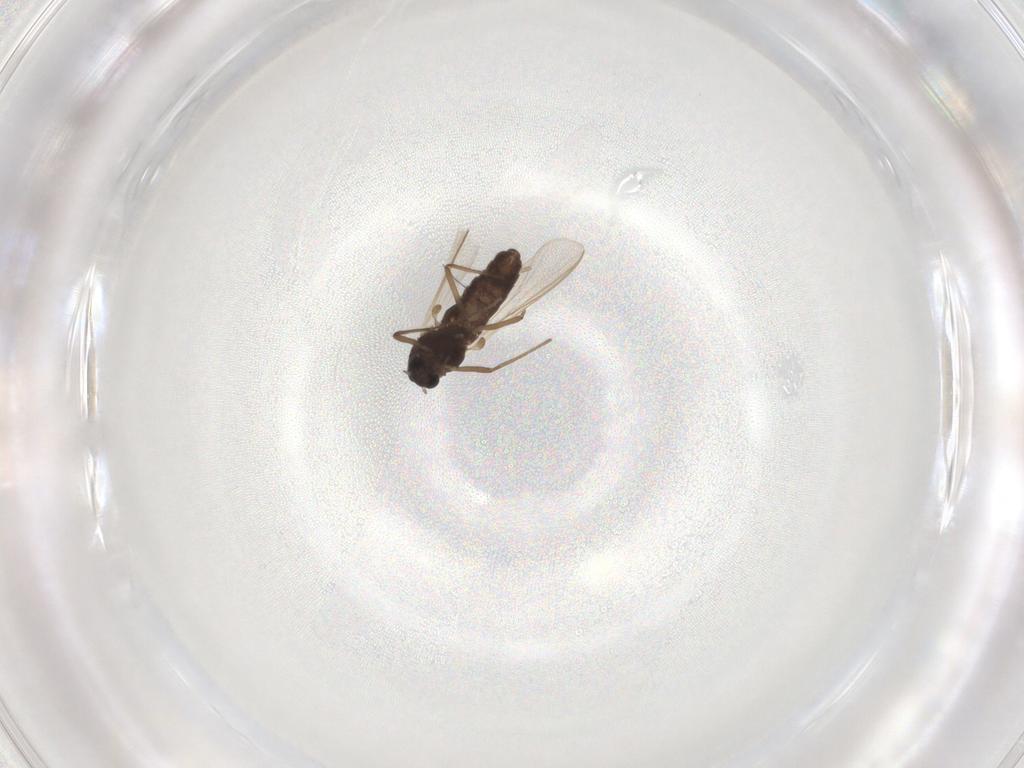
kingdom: Animalia
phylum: Arthropoda
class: Insecta
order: Diptera
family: Chironomidae
